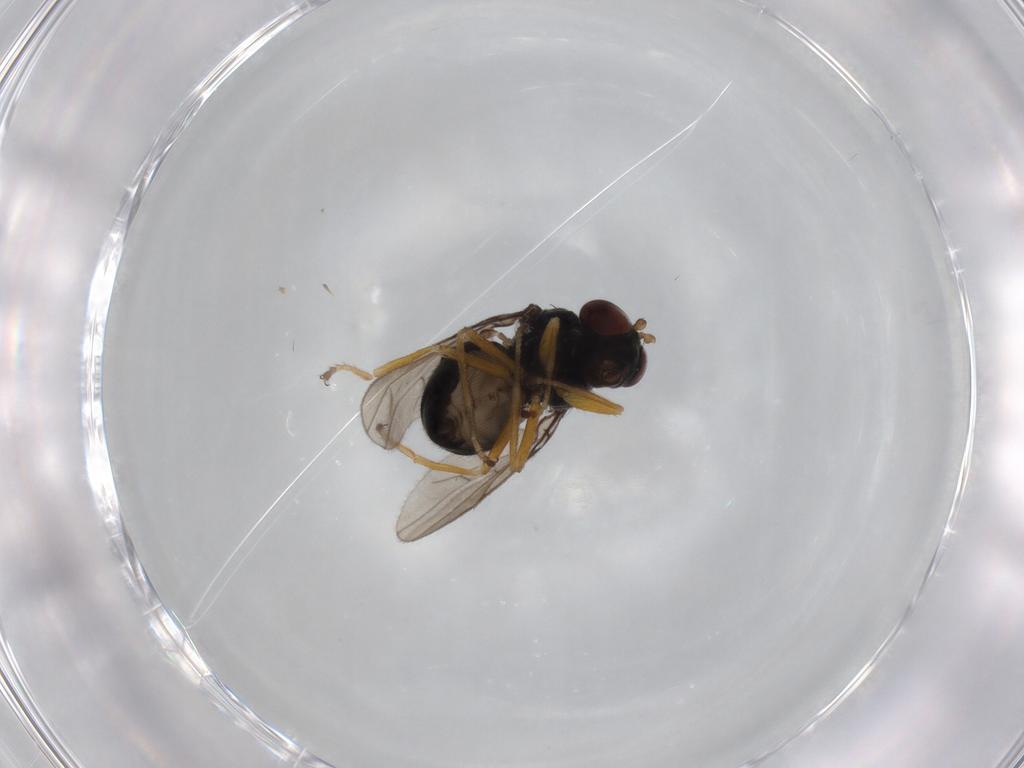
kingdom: Animalia
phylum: Arthropoda
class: Insecta
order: Diptera
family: Ephydridae
